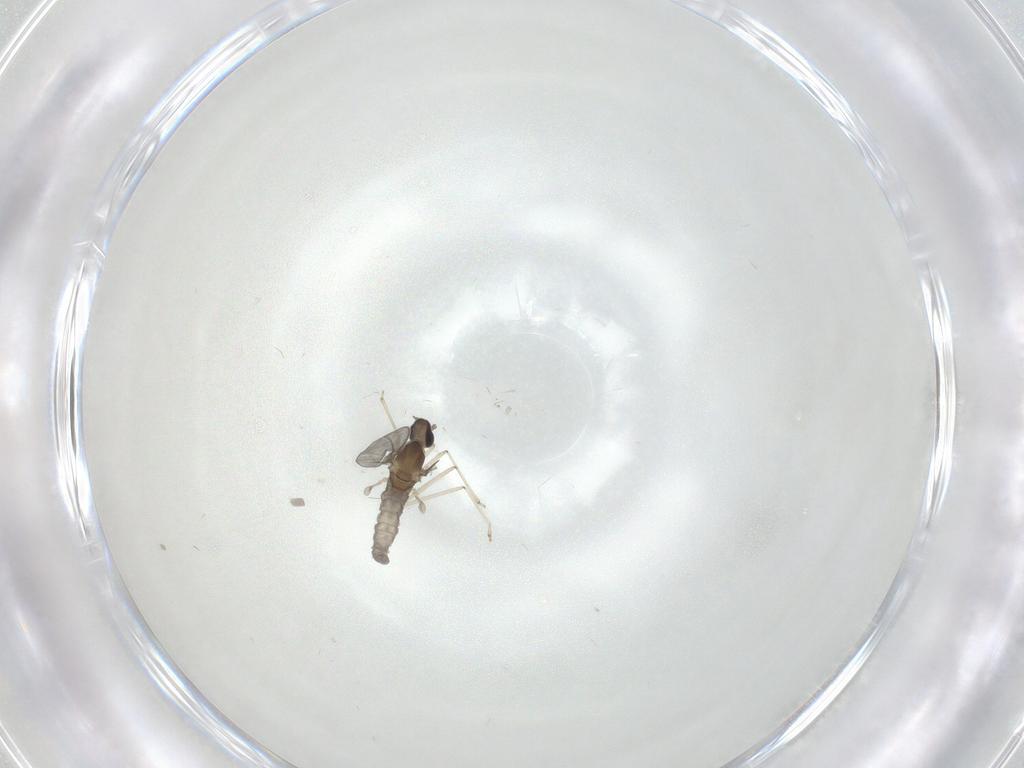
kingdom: Animalia
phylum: Arthropoda
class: Insecta
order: Diptera
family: Cecidomyiidae
